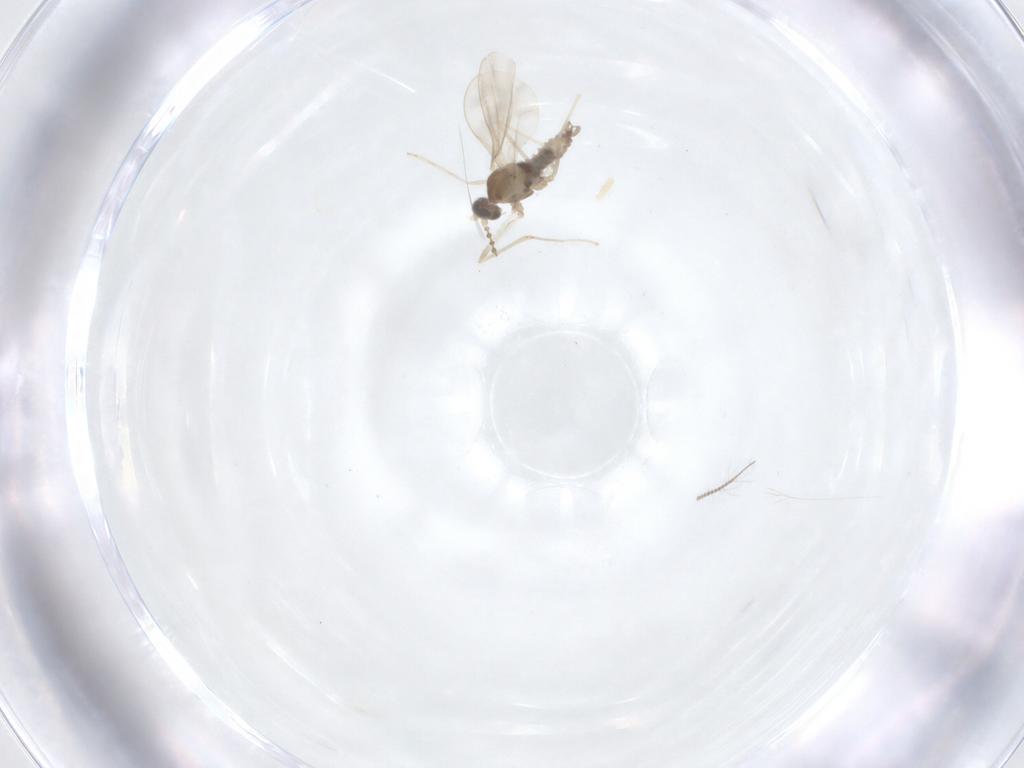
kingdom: Animalia
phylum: Arthropoda
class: Insecta
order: Diptera
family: Cecidomyiidae
